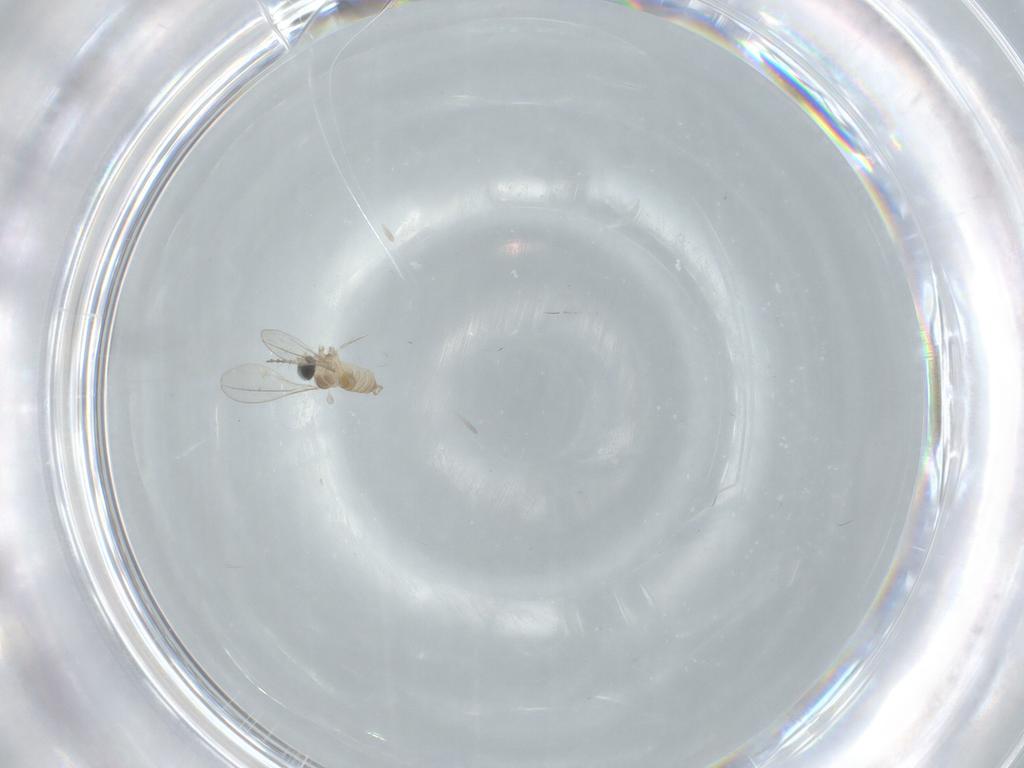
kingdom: Animalia
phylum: Arthropoda
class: Insecta
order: Diptera
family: Cecidomyiidae
